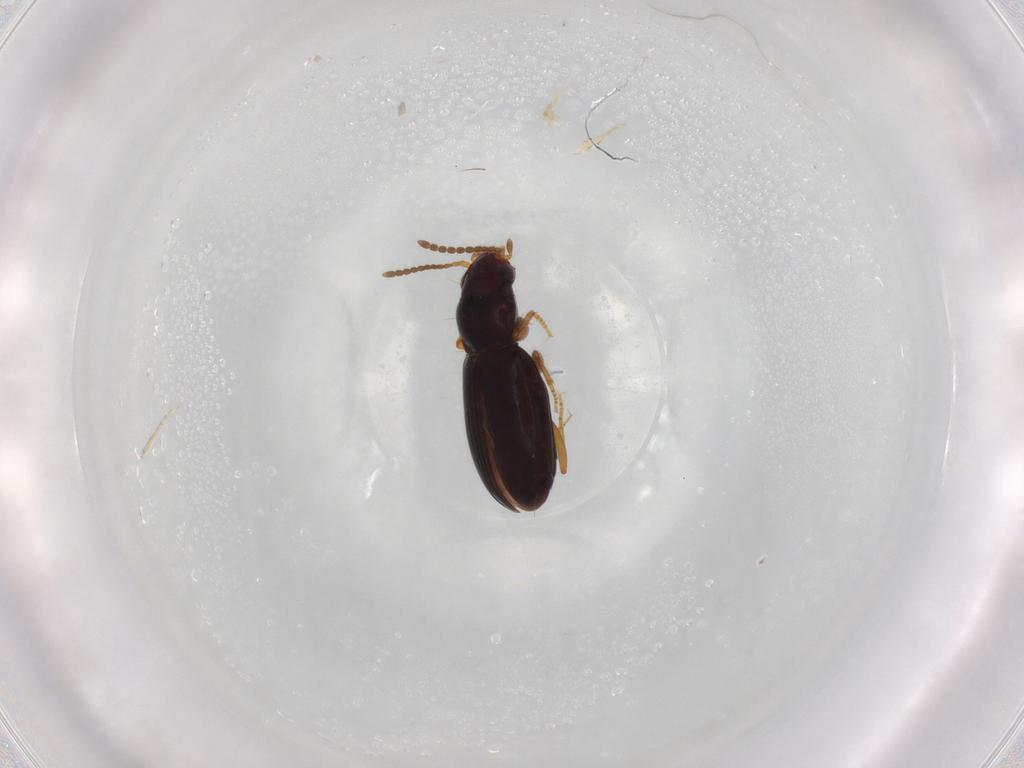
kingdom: Animalia
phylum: Arthropoda
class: Insecta
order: Coleoptera
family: Carabidae
